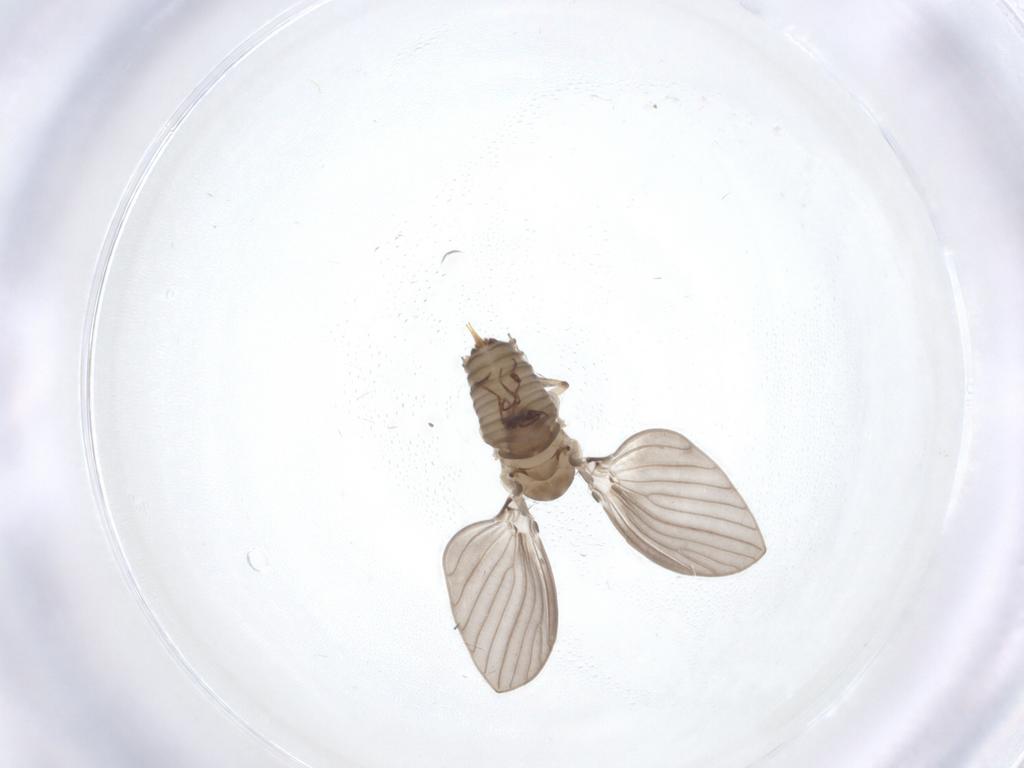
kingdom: Animalia
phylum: Arthropoda
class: Insecta
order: Diptera
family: Psychodidae
